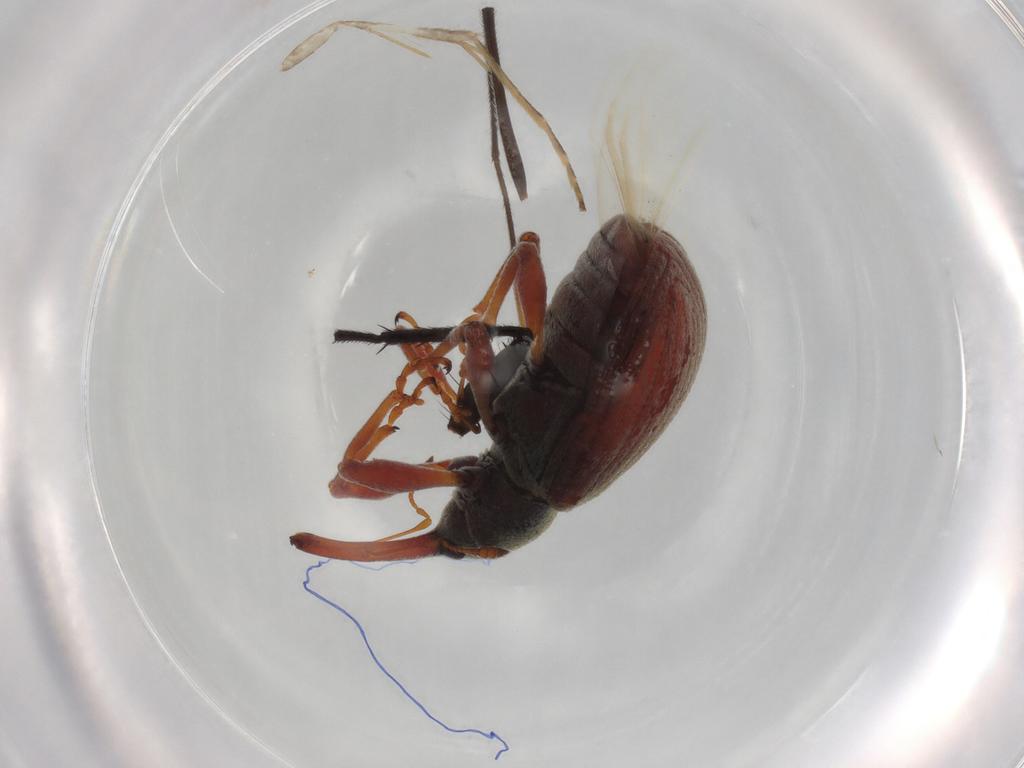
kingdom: Animalia
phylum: Arthropoda
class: Insecta
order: Diptera
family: Chironomidae
